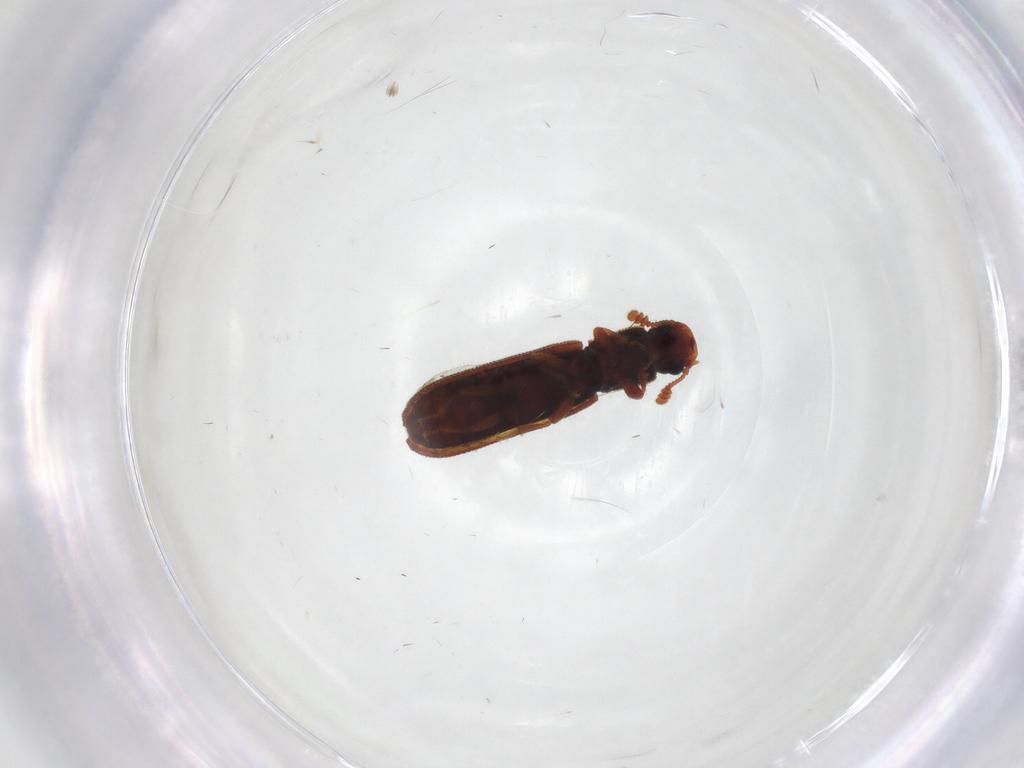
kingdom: Animalia
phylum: Arthropoda
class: Insecta
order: Coleoptera
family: Zopheridae
